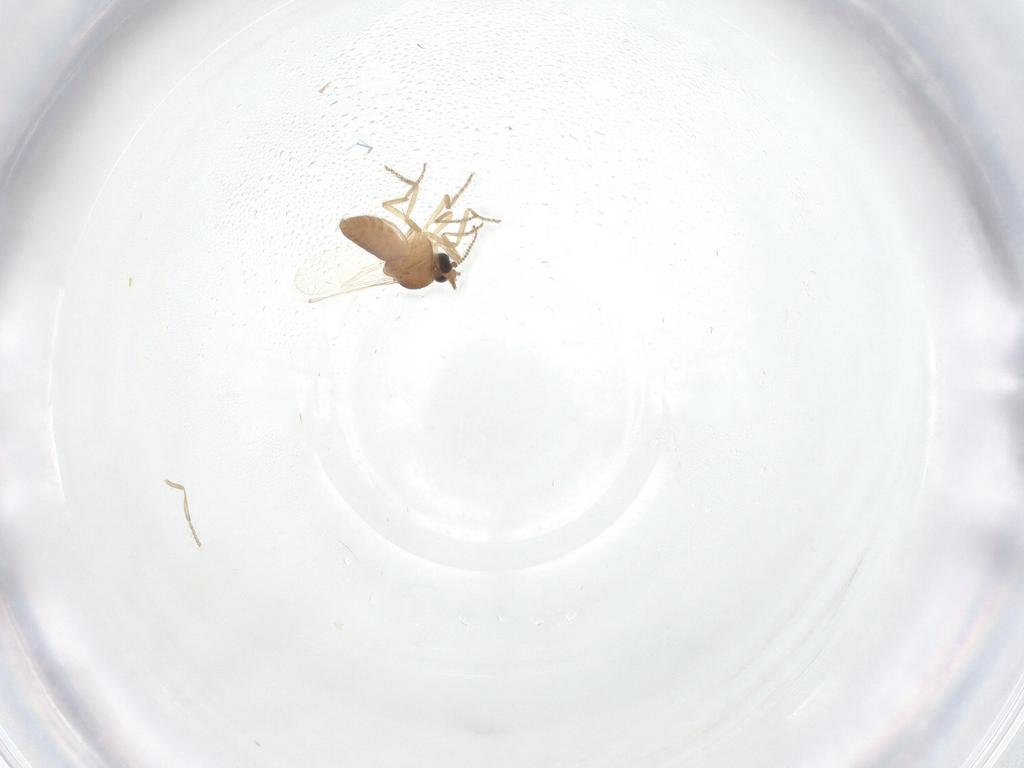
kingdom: Animalia
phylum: Arthropoda
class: Insecta
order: Diptera
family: Ceratopogonidae
